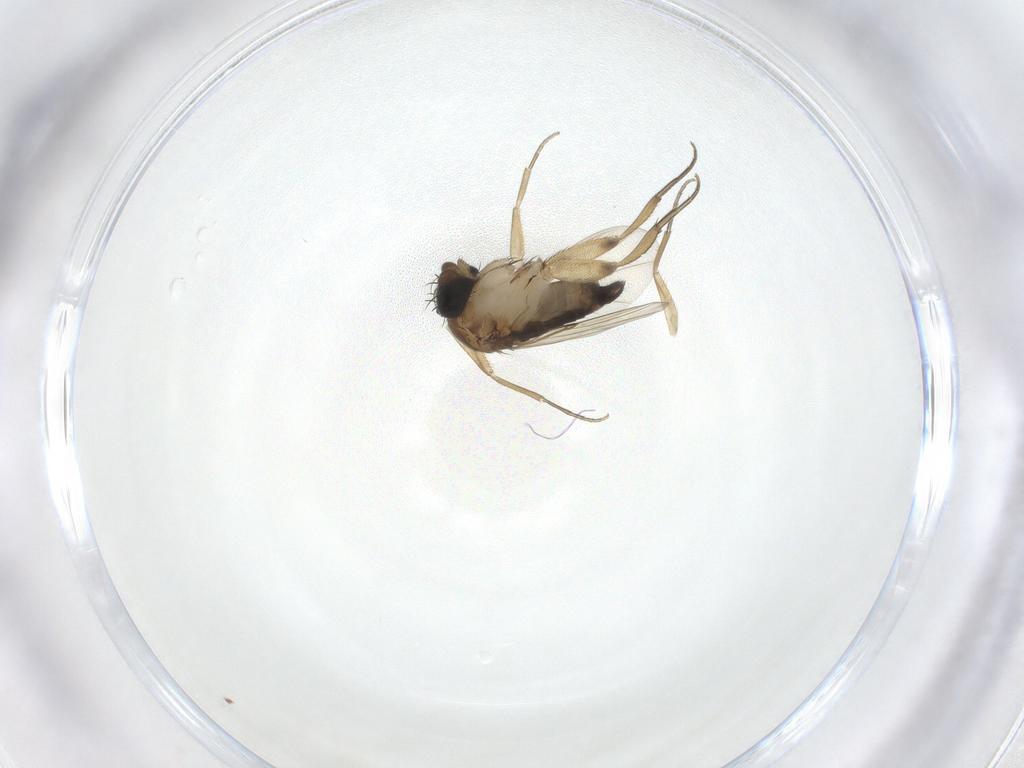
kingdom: Animalia
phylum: Arthropoda
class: Insecta
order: Diptera
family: Phoridae
